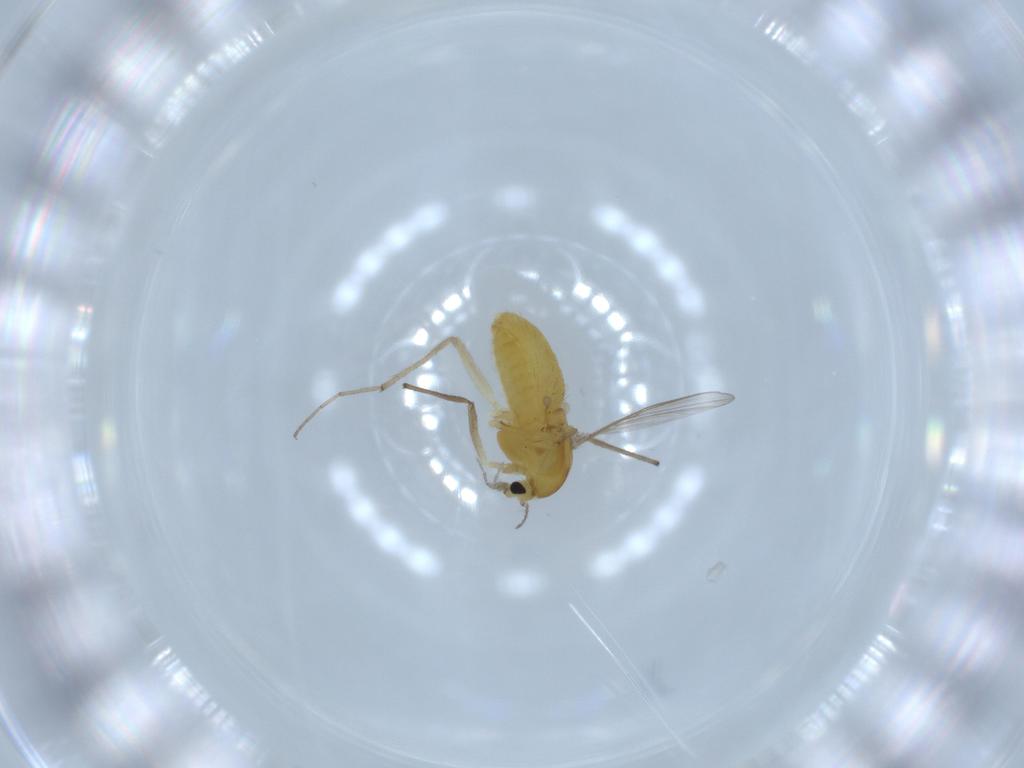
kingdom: Animalia
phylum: Arthropoda
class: Insecta
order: Diptera
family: Chironomidae
